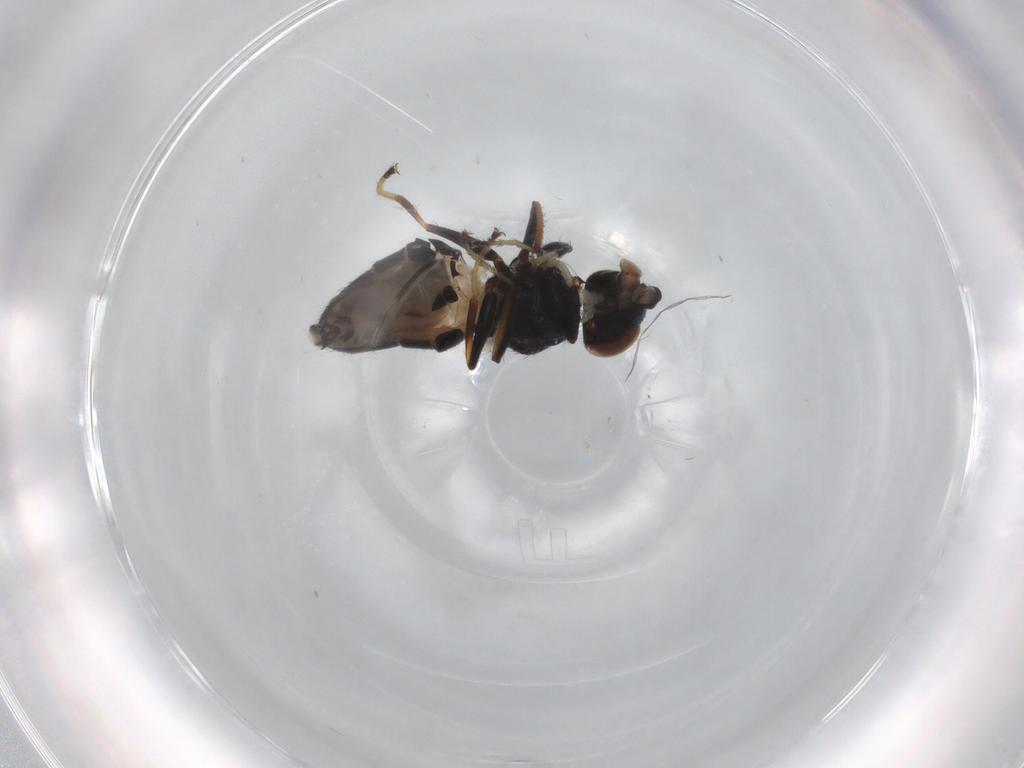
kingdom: Animalia
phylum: Arthropoda
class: Insecta
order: Diptera
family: Ephydridae
